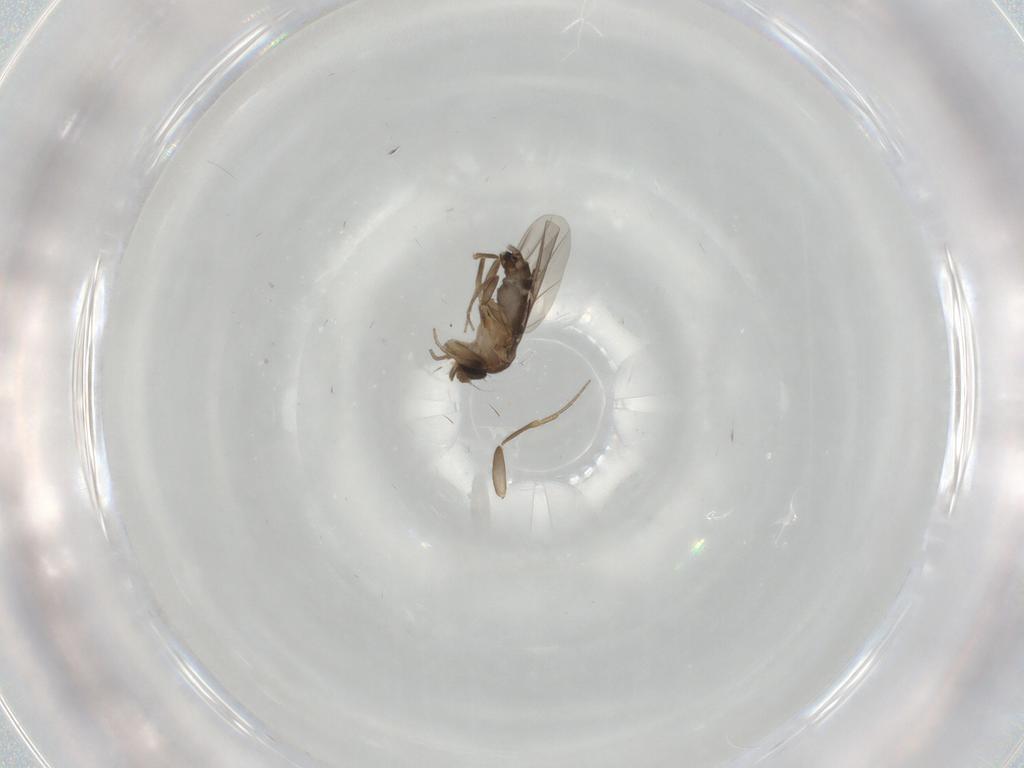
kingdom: Animalia
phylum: Arthropoda
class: Insecta
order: Diptera
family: Phoridae
